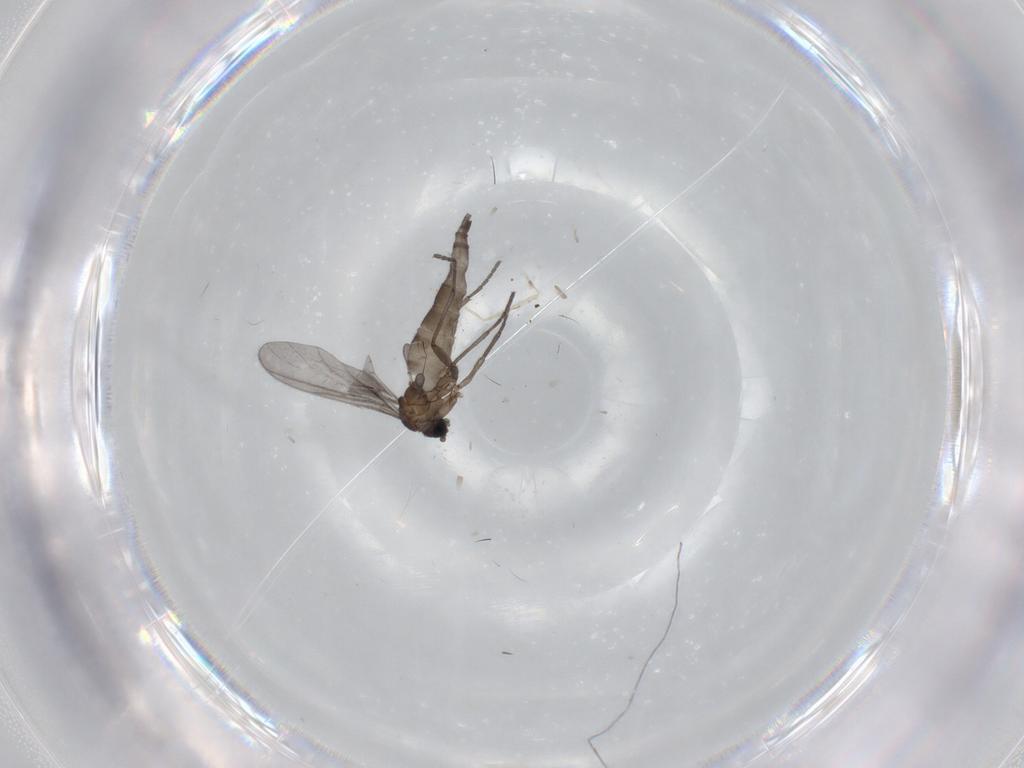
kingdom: Animalia
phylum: Arthropoda
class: Insecta
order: Diptera
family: Sciaridae
